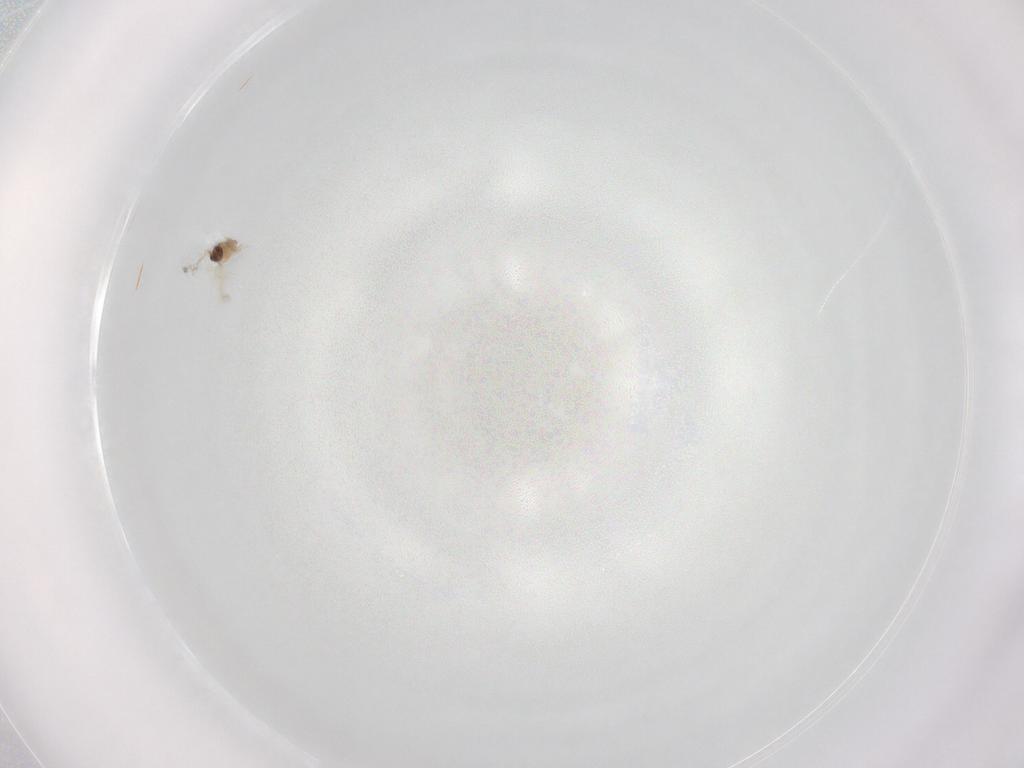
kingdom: Animalia
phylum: Arthropoda
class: Insecta
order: Hymenoptera
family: Mymaridae
